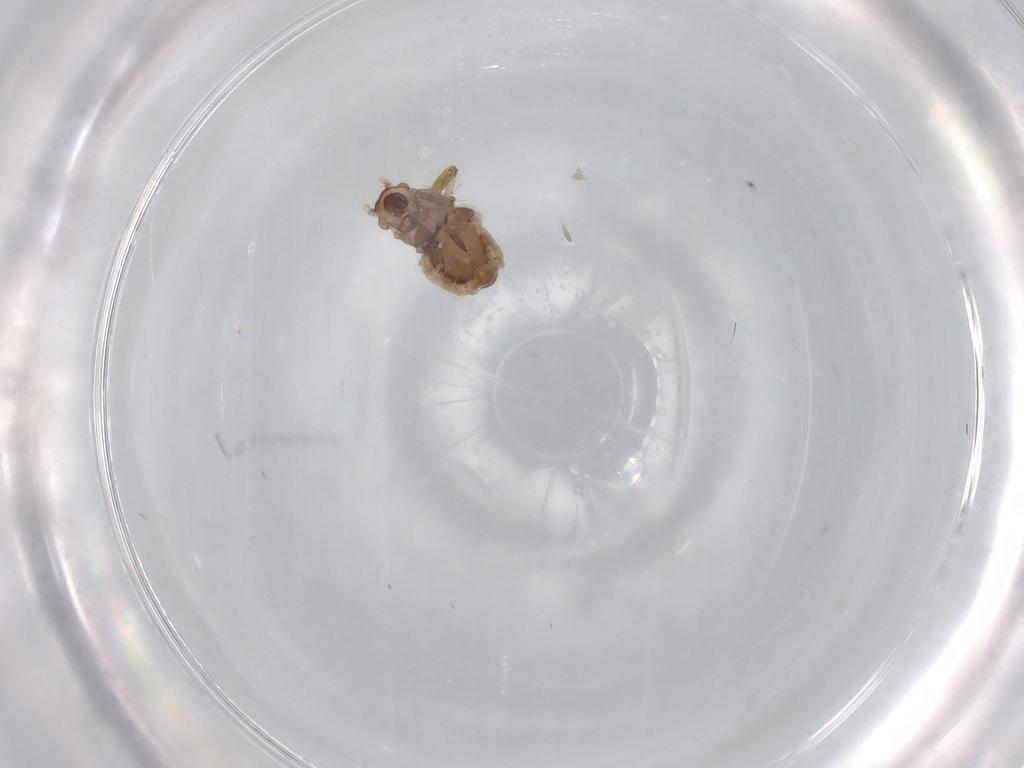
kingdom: Animalia
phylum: Arthropoda
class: Insecta
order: Hemiptera
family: Aphididae
